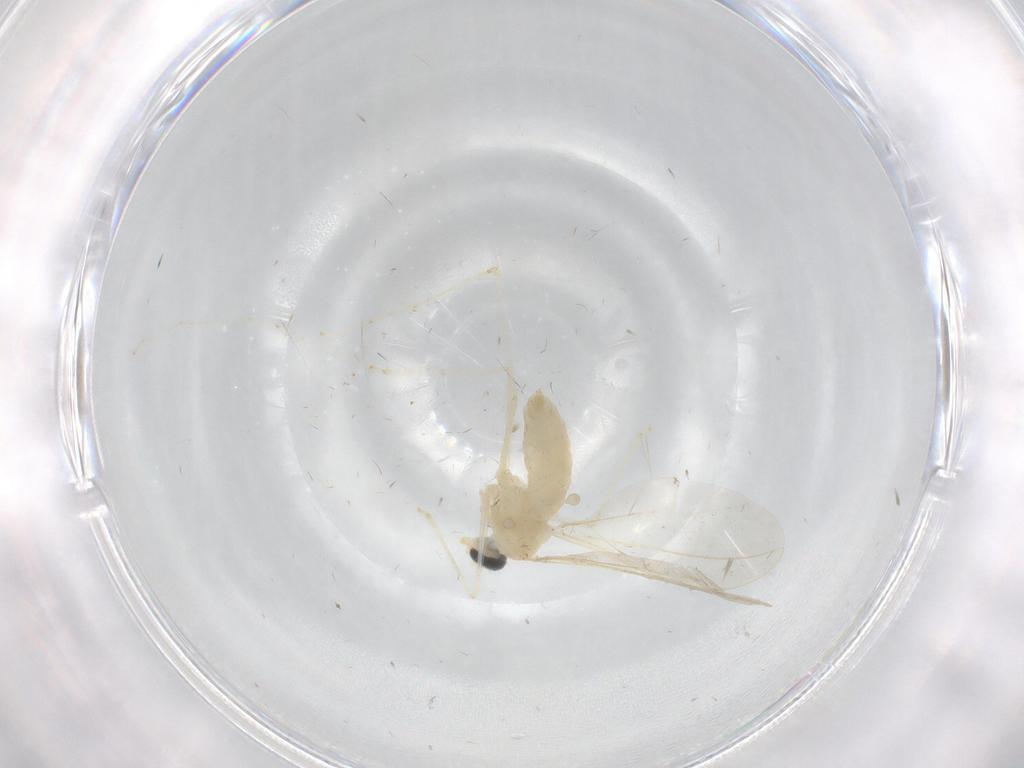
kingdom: Animalia
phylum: Arthropoda
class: Insecta
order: Diptera
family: Cecidomyiidae
